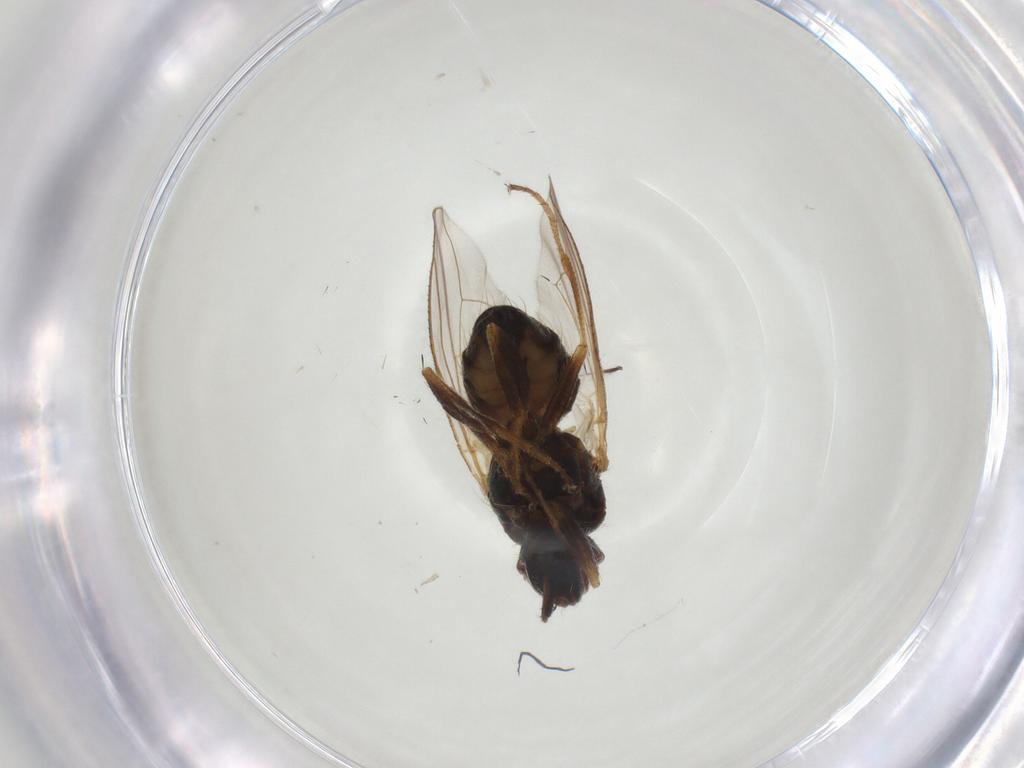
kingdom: Animalia
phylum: Arthropoda
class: Insecta
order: Diptera
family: Sarcophagidae
